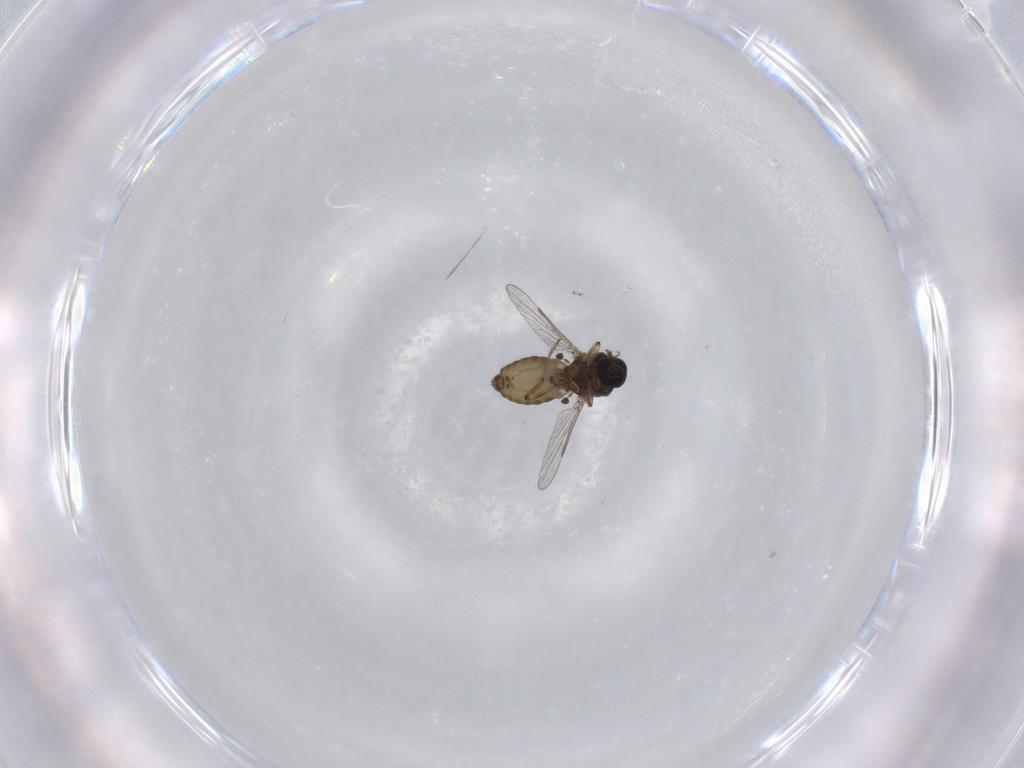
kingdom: Animalia
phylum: Arthropoda
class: Insecta
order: Diptera
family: Ceratopogonidae
